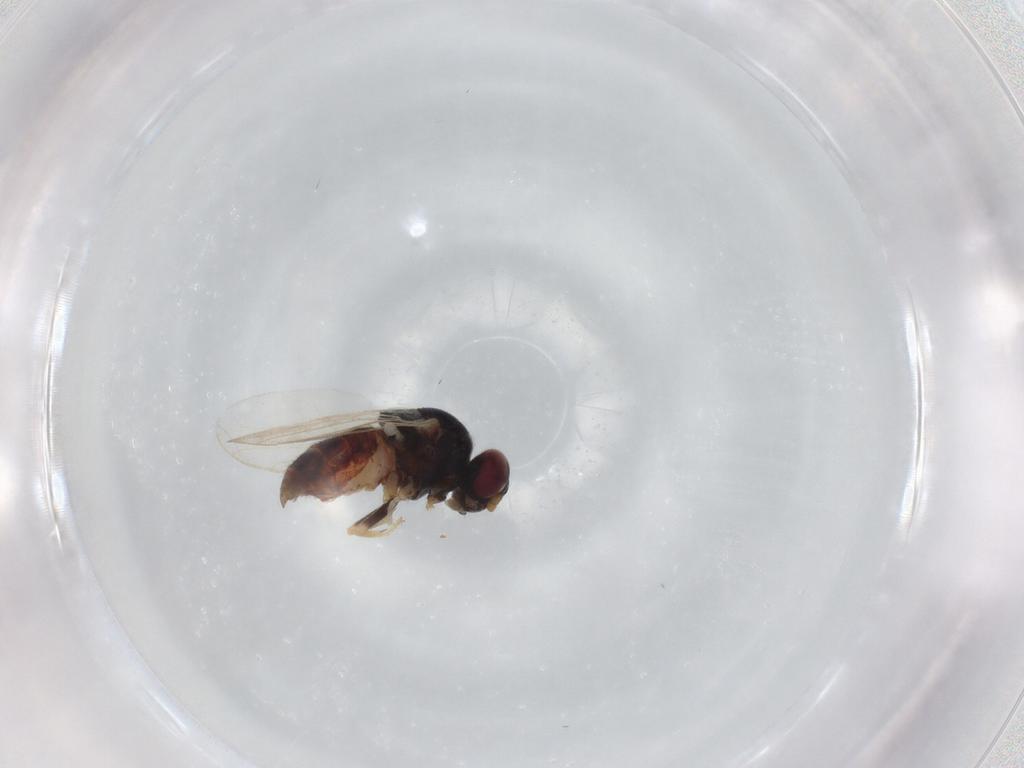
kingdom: Animalia
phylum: Arthropoda
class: Insecta
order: Diptera
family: Chloropidae
